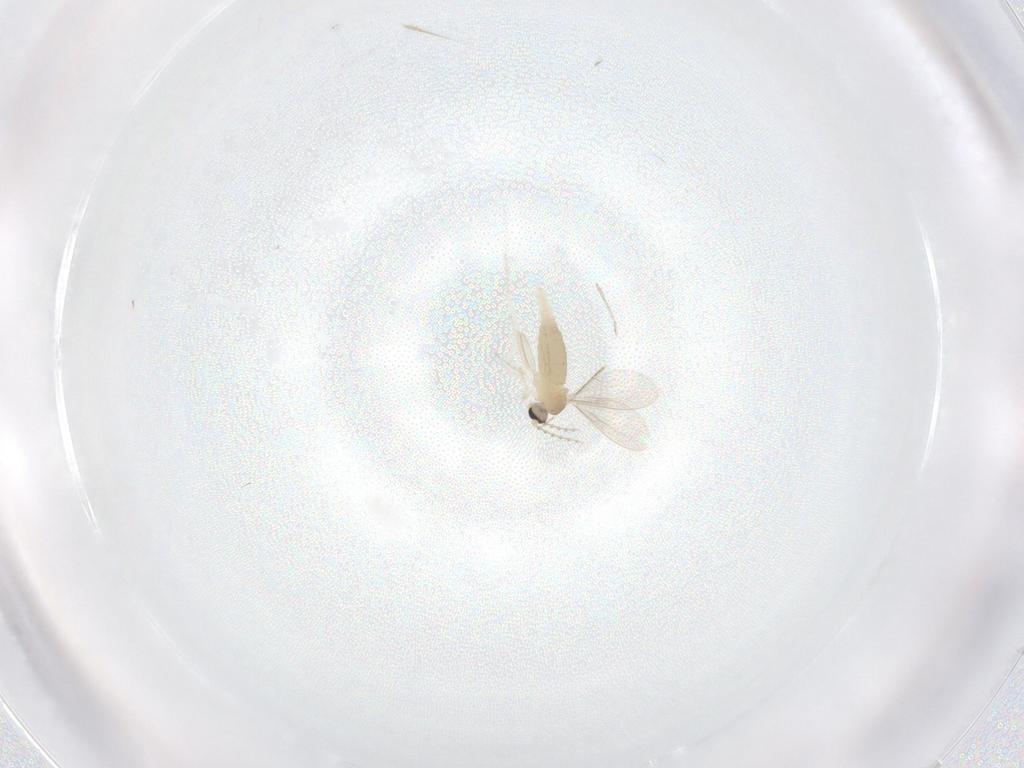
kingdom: Animalia
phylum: Arthropoda
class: Insecta
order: Diptera
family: Cecidomyiidae
